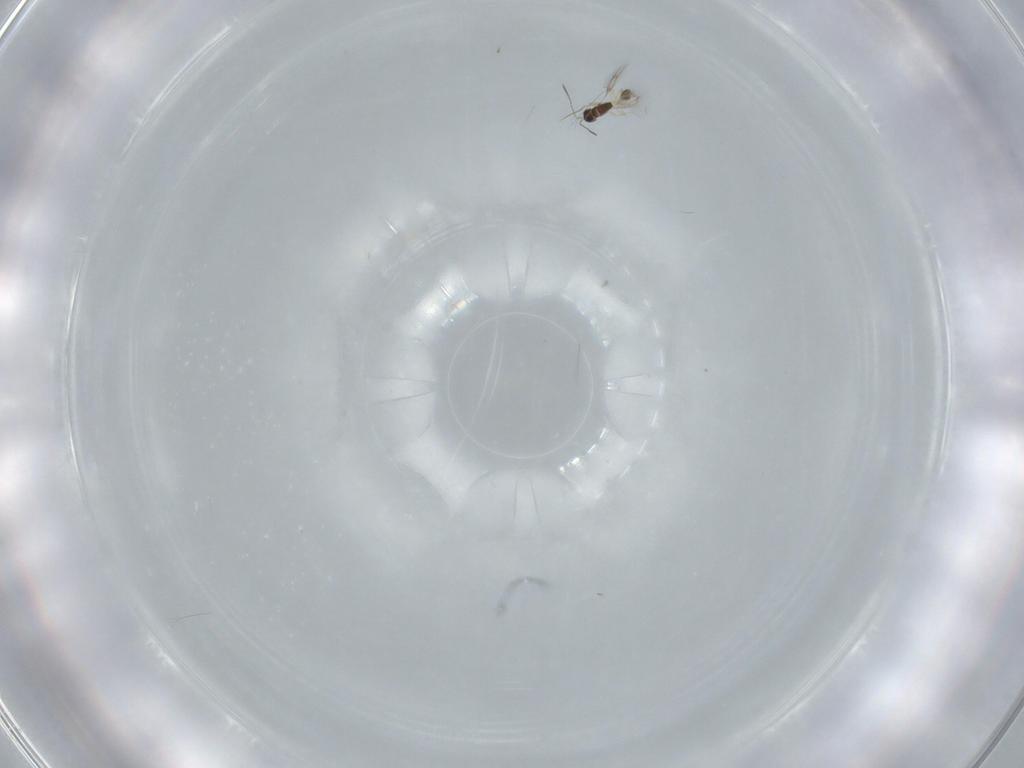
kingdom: Animalia
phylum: Arthropoda
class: Insecta
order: Hymenoptera
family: Mymarommatidae
